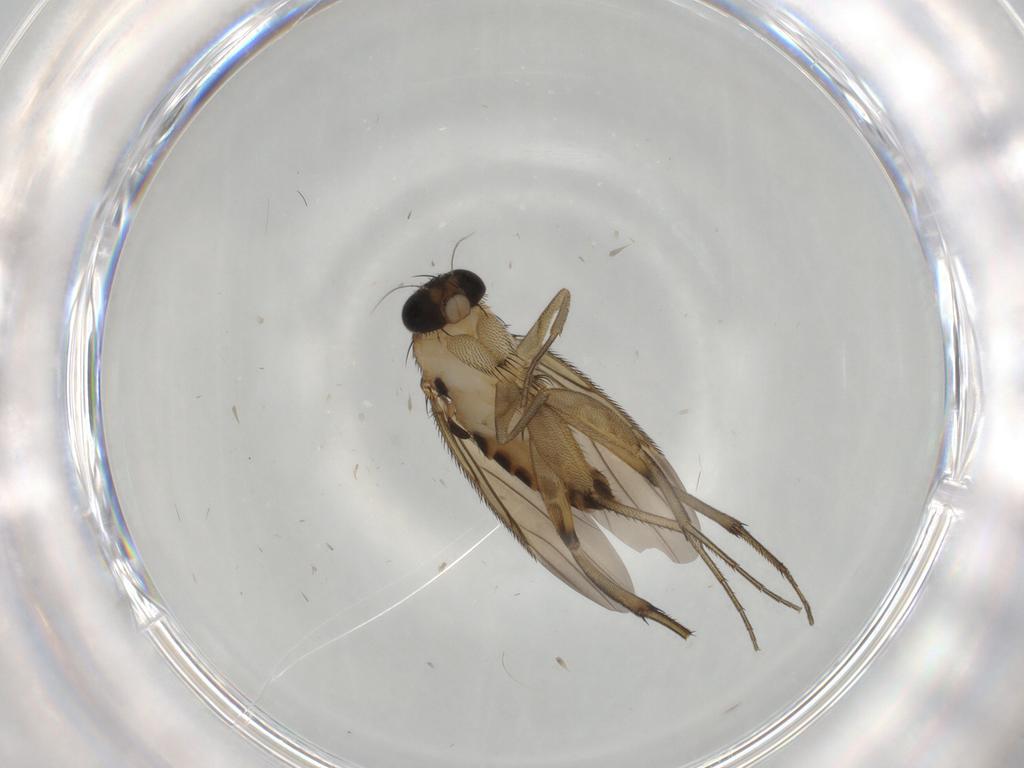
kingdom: Animalia
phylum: Arthropoda
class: Insecta
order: Diptera
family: Phoridae
